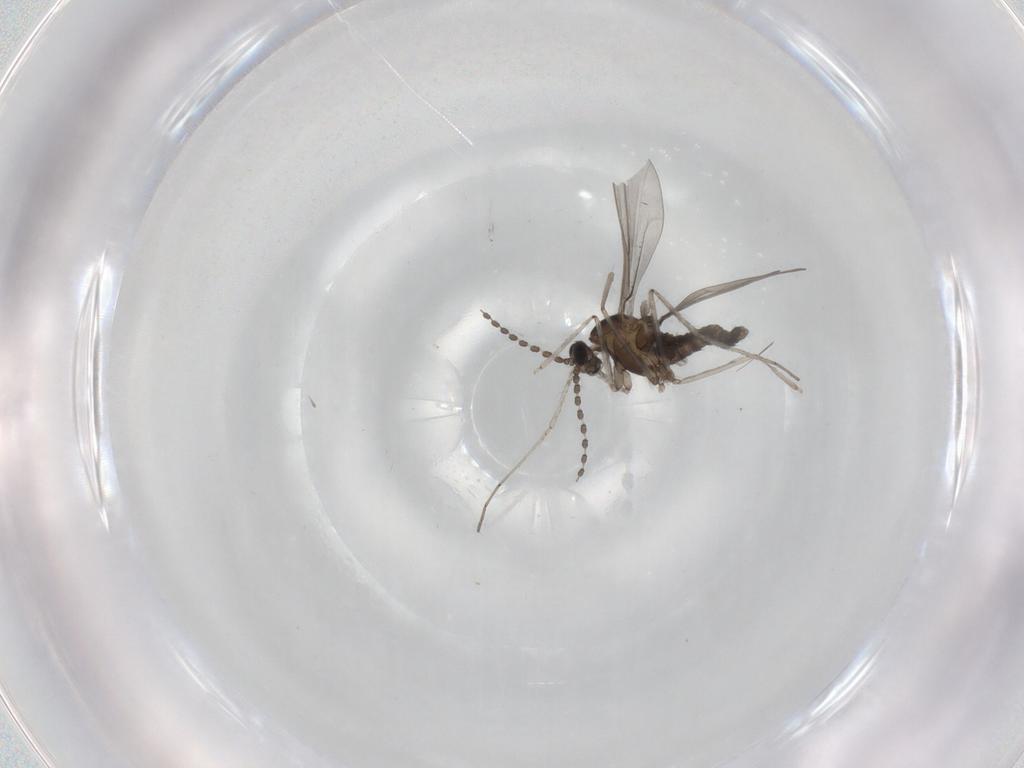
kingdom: Animalia
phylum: Arthropoda
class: Insecta
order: Diptera
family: Cecidomyiidae
